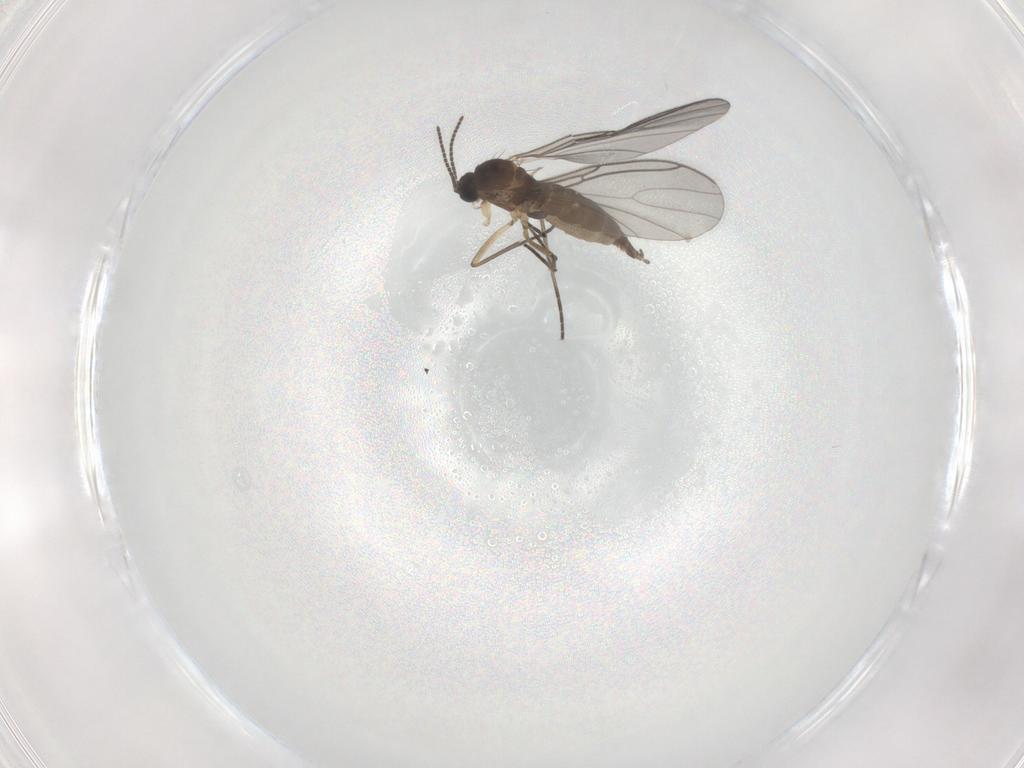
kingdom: Animalia
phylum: Arthropoda
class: Insecta
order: Diptera
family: Sciaridae
